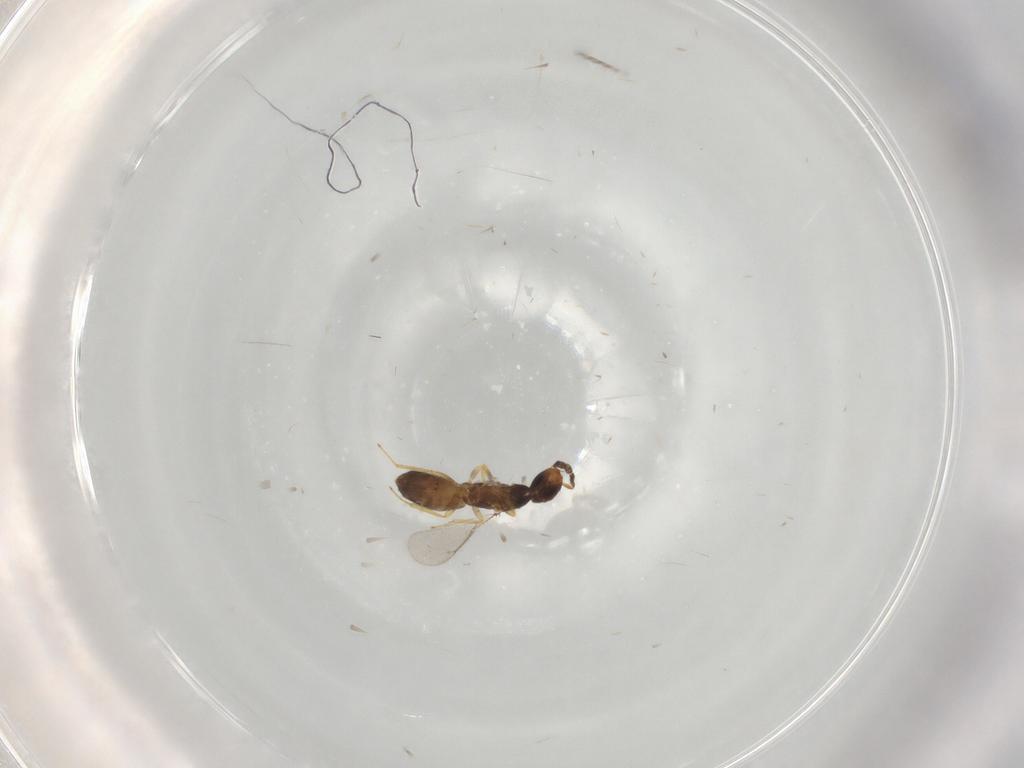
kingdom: Animalia
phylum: Arthropoda
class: Insecta
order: Hymenoptera
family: Eulophidae
